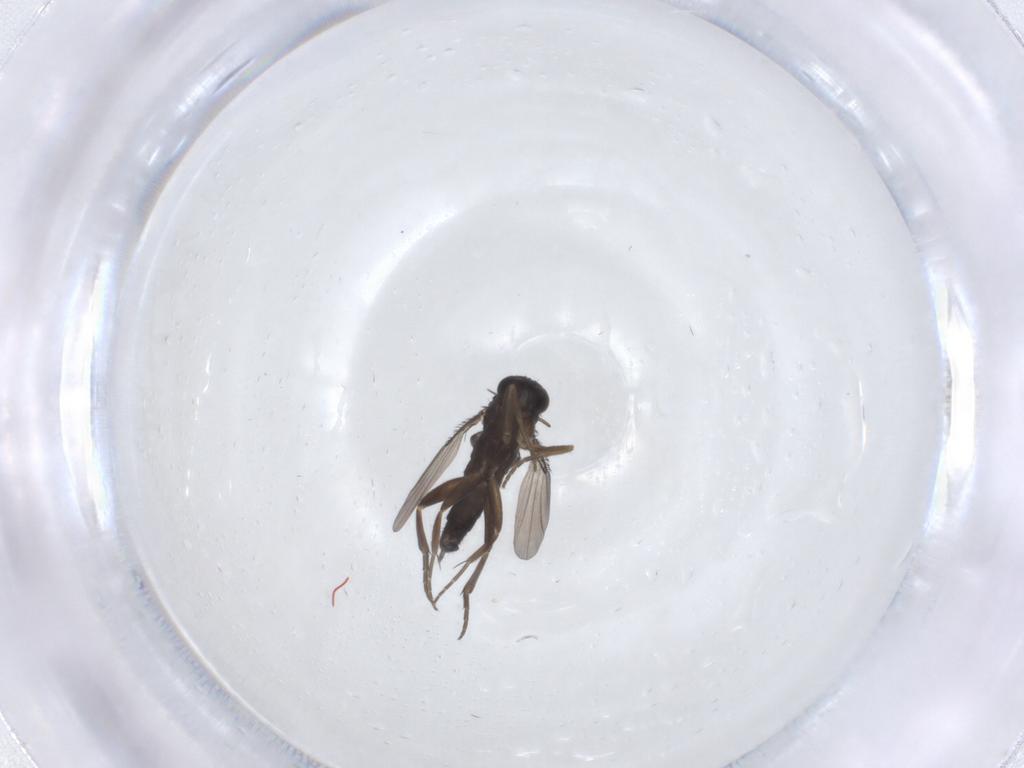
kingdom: Animalia
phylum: Arthropoda
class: Insecta
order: Diptera
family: Phoridae
